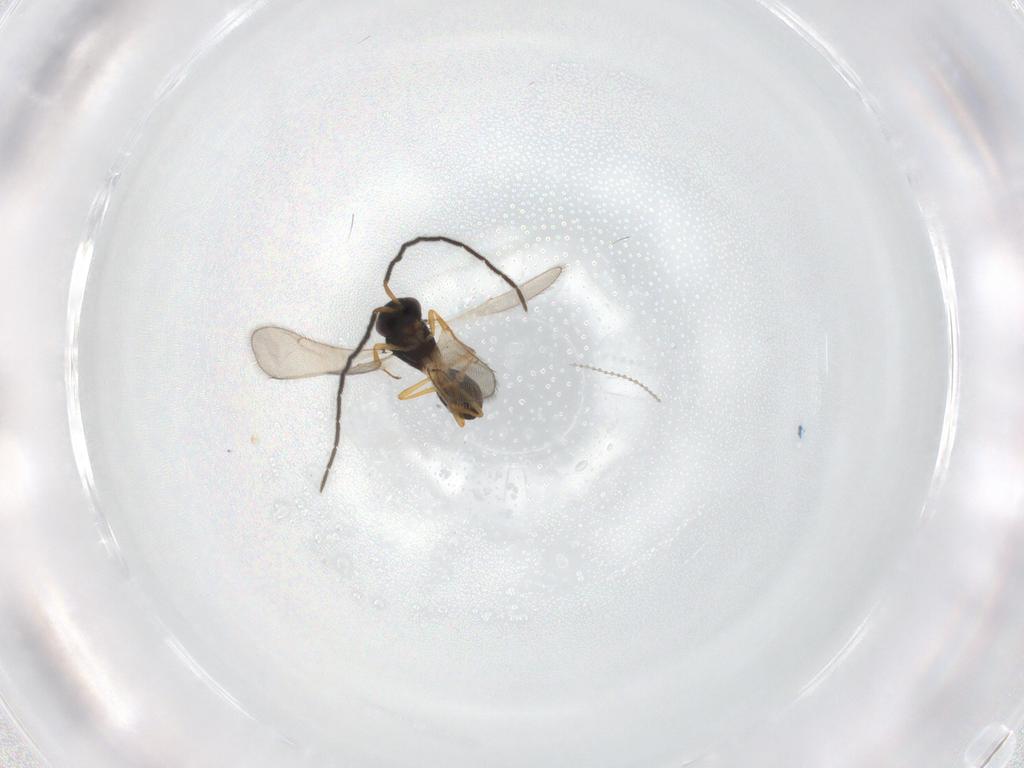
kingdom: Animalia
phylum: Arthropoda
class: Insecta
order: Hymenoptera
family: Scelionidae
